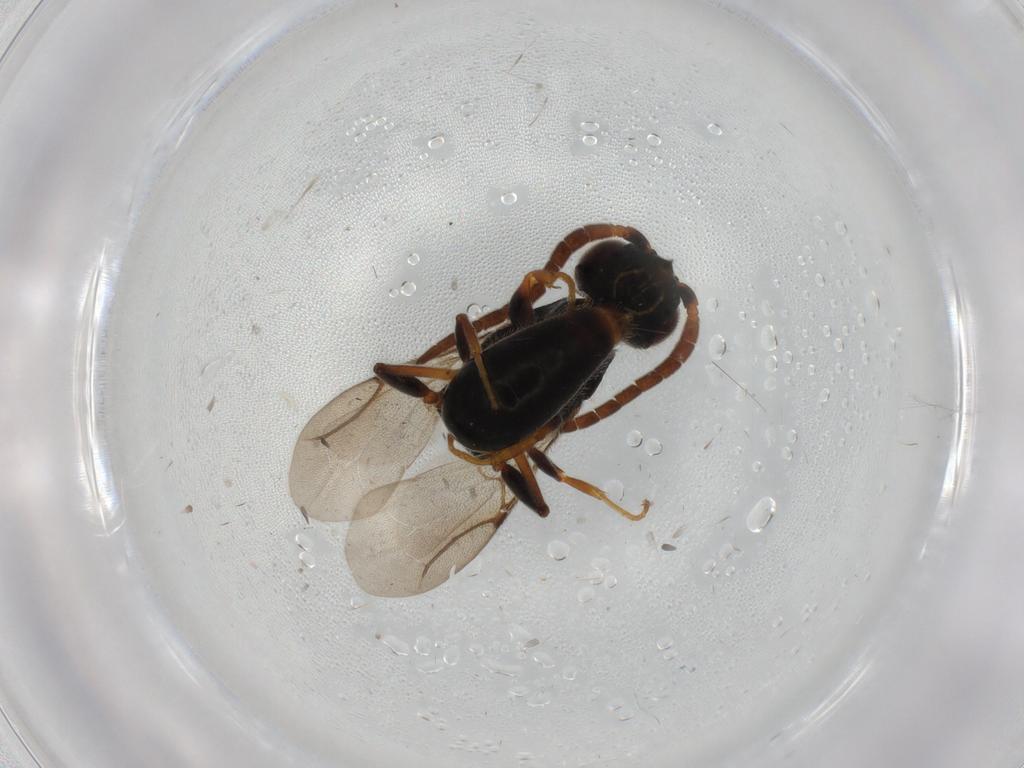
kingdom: Animalia
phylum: Arthropoda
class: Insecta
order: Hymenoptera
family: Bethylidae
